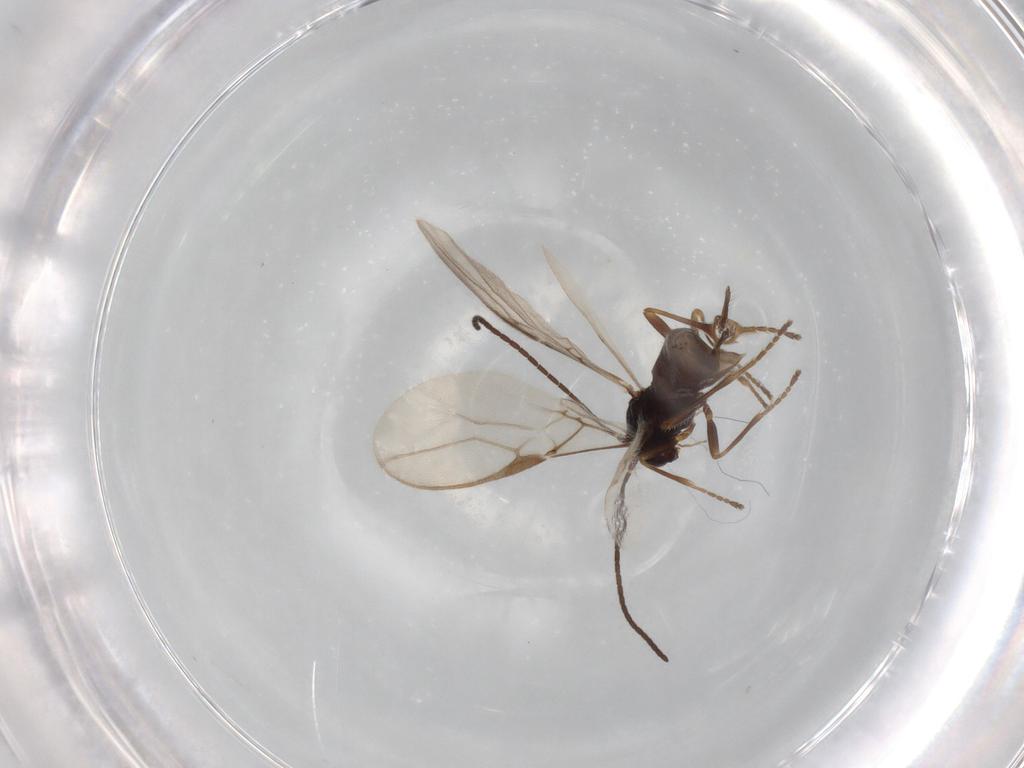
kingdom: Animalia
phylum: Arthropoda
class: Insecta
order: Hymenoptera
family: Braconidae
